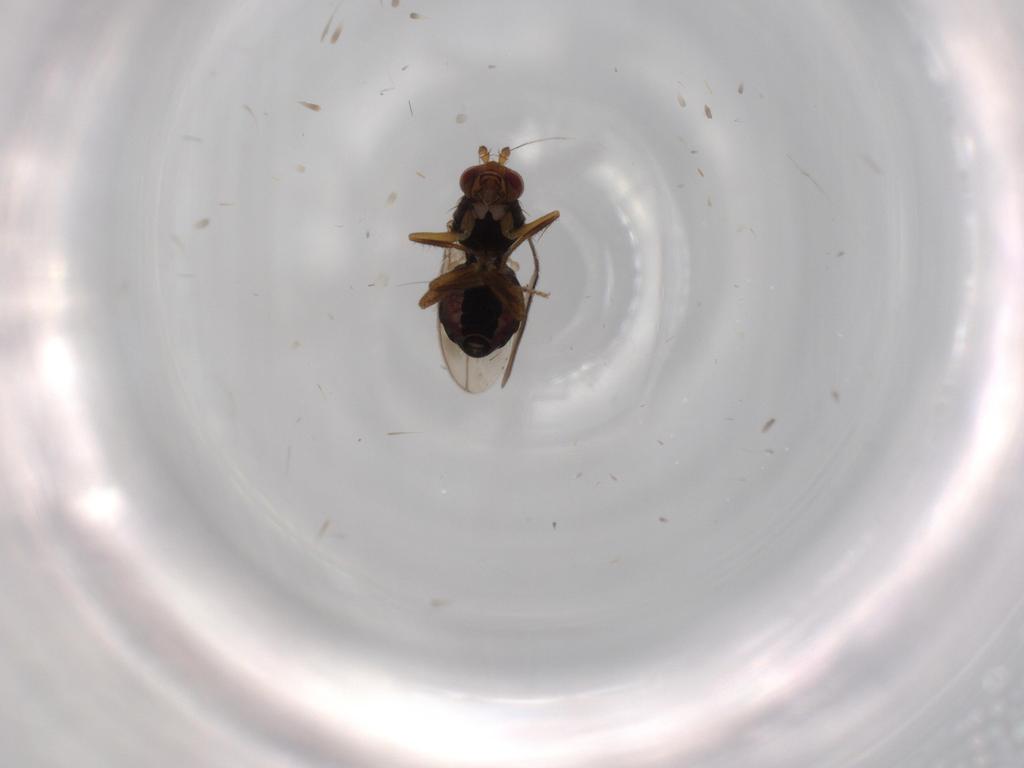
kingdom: Animalia
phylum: Arthropoda
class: Insecta
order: Diptera
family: Sphaeroceridae
